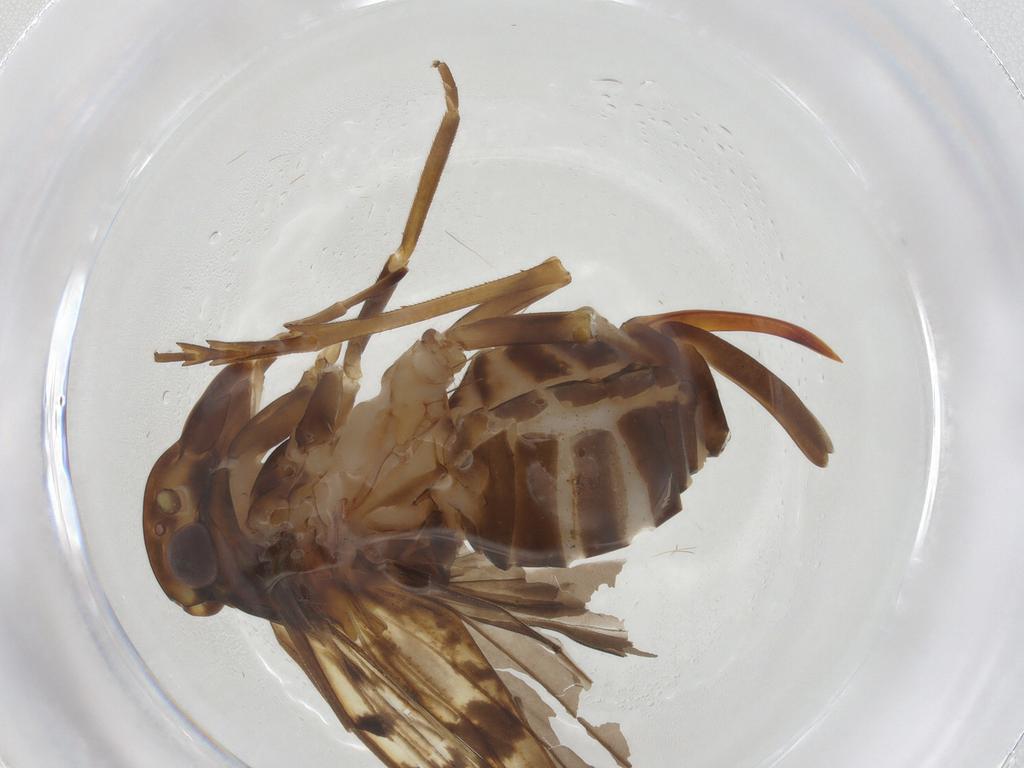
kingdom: Animalia
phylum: Arthropoda
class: Insecta
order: Hemiptera
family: Cixiidae
